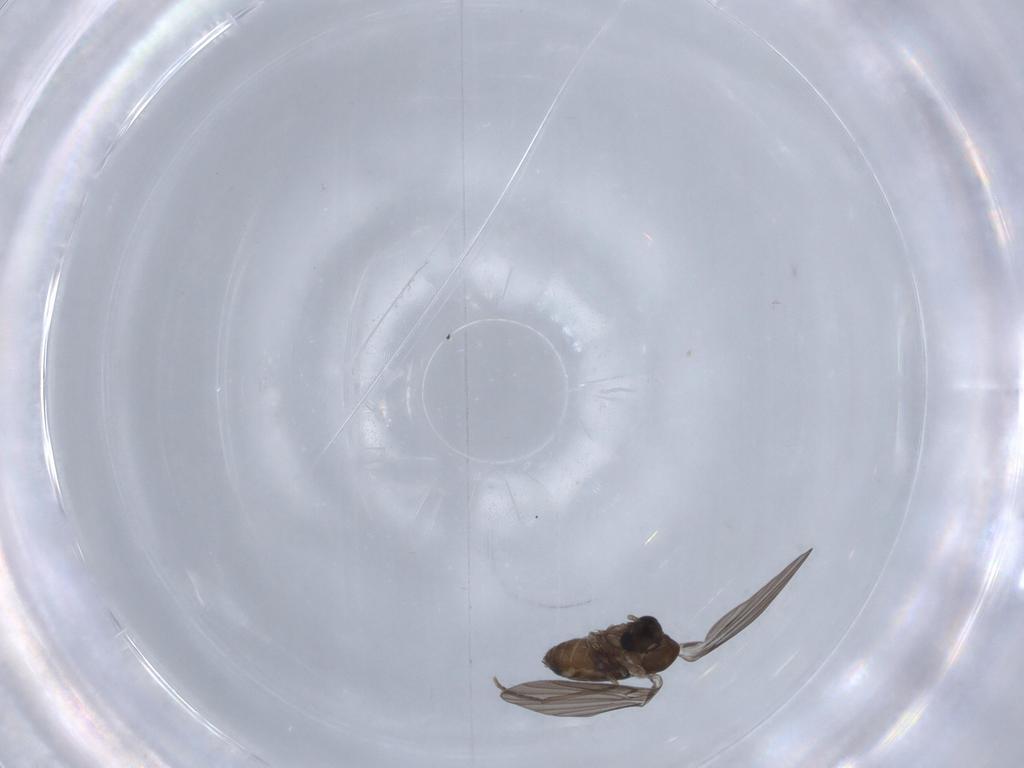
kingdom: Animalia
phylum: Arthropoda
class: Insecta
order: Diptera
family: Psychodidae
